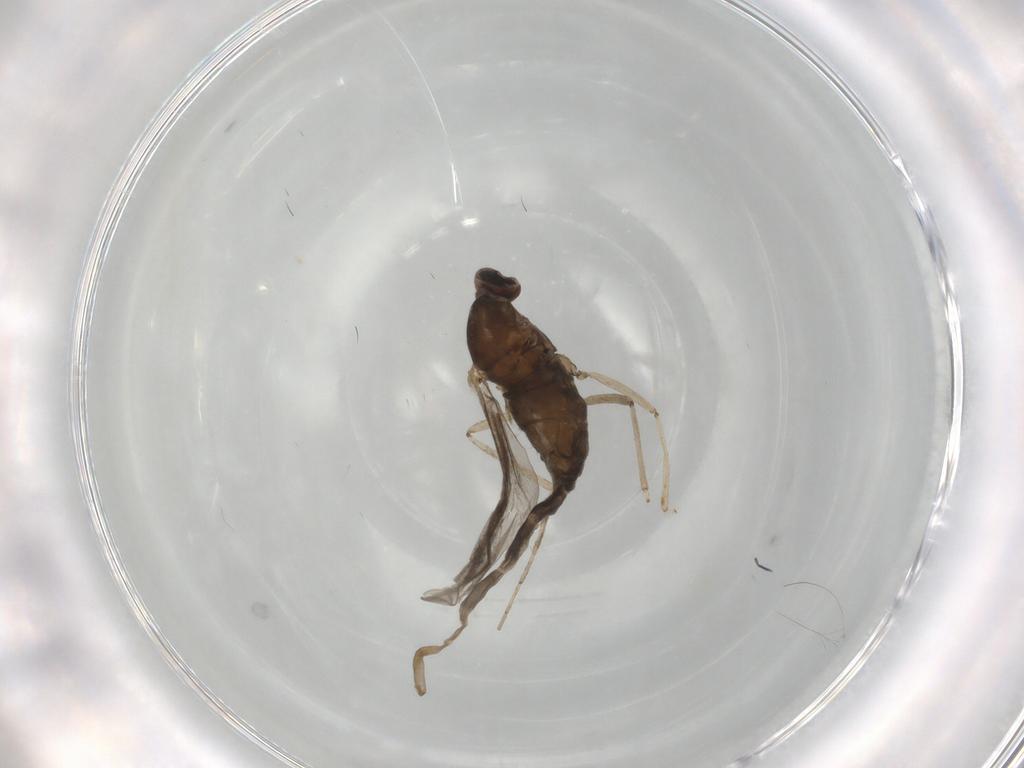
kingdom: Animalia
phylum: Arthropoda
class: Insecta
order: Diptera
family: Cecidomyiidae
